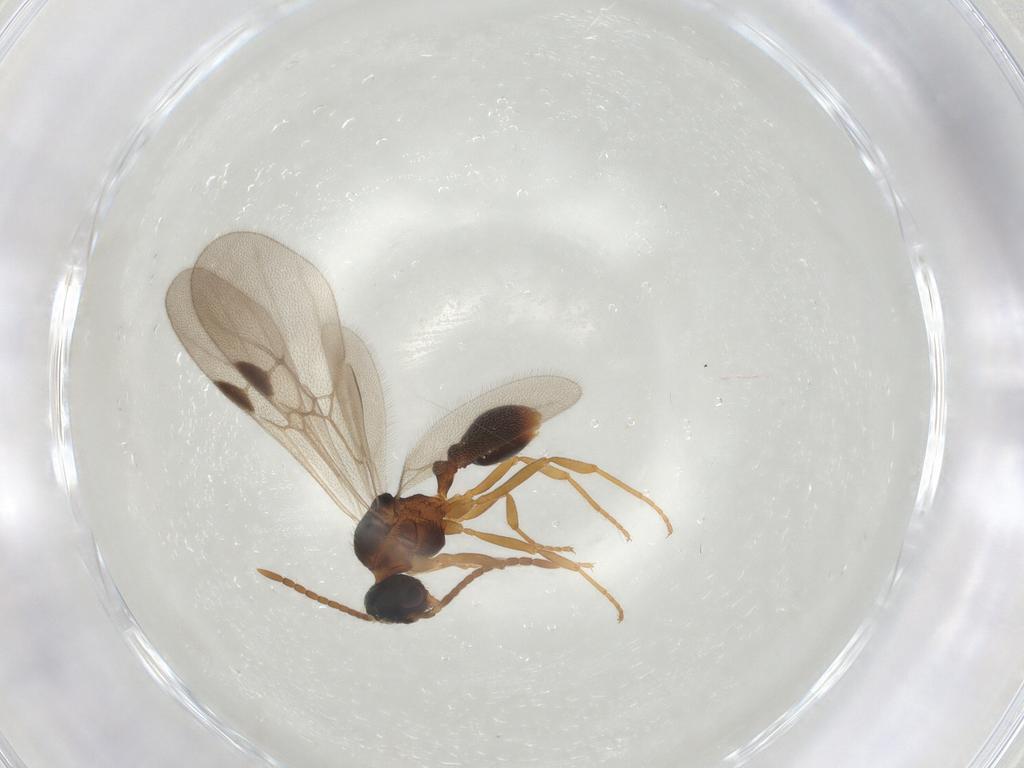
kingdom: Animalia
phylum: Arthropoda
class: Insecta
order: Hymenoptera
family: Formicidae
